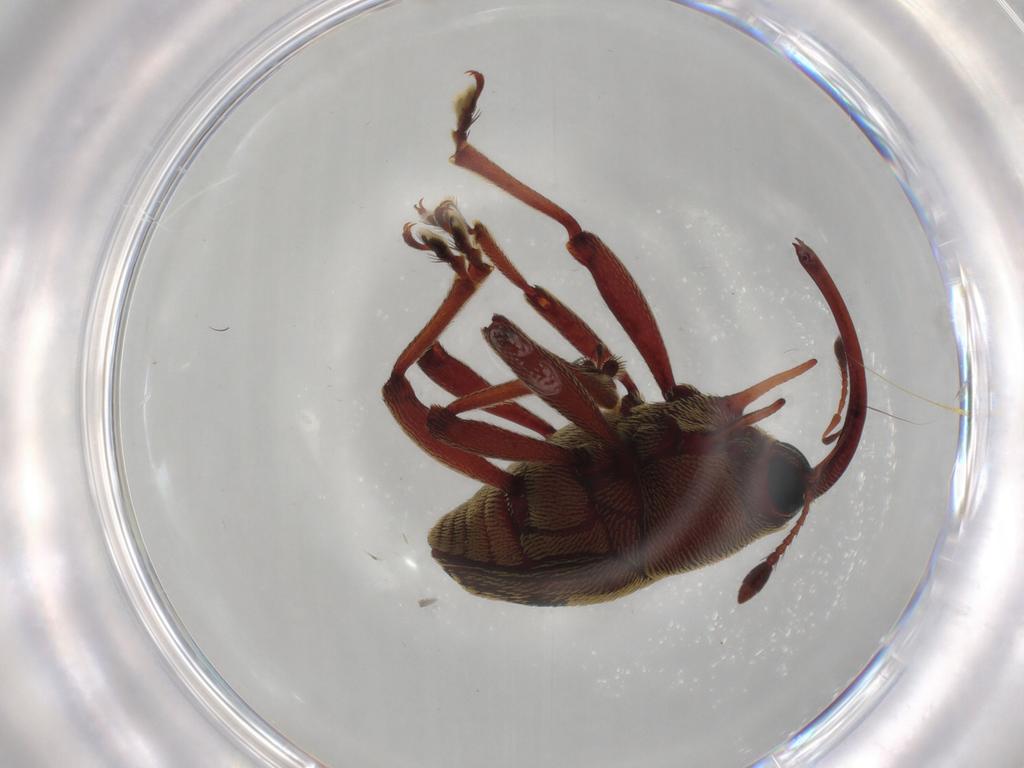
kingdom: Animalia
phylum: Arthropoda
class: Insecta
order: Coleoptera
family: Curculionidae
